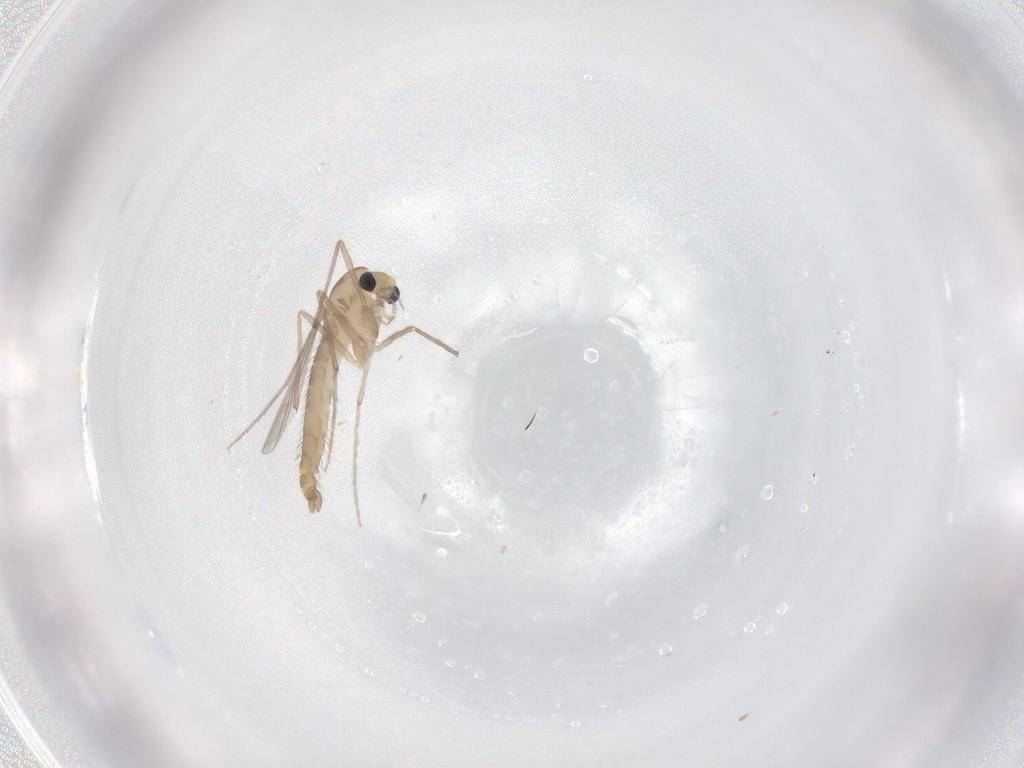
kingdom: Animalia
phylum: Arthropoda
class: Insecta
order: Diptera
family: Chironomidae
